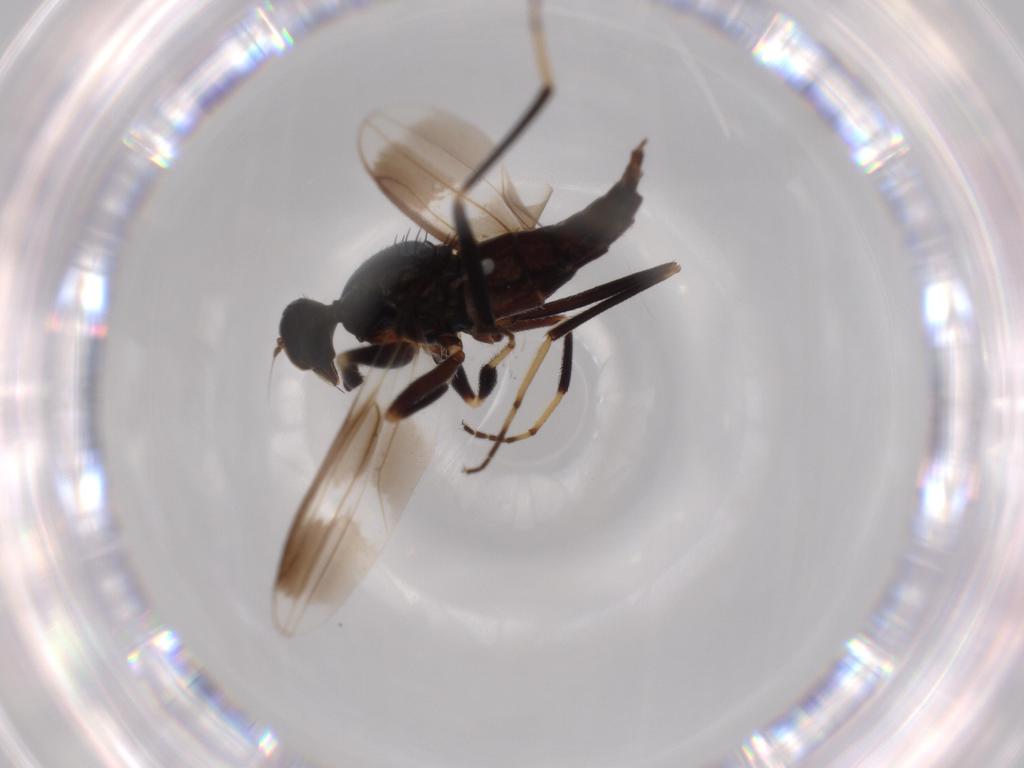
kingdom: Animalia
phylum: Arthropoda
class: Insecta
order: Diptera
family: Hybotidae
